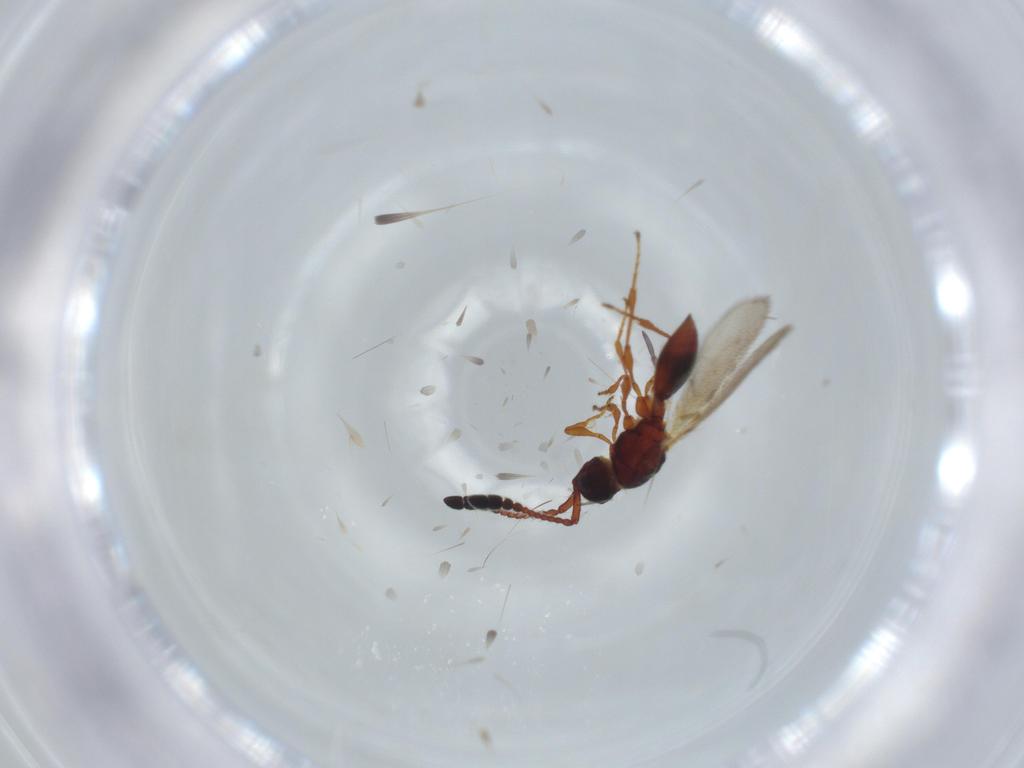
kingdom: Animalia
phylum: Arthropoda
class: Insecta
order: Hymenoptera
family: Diapriidae
